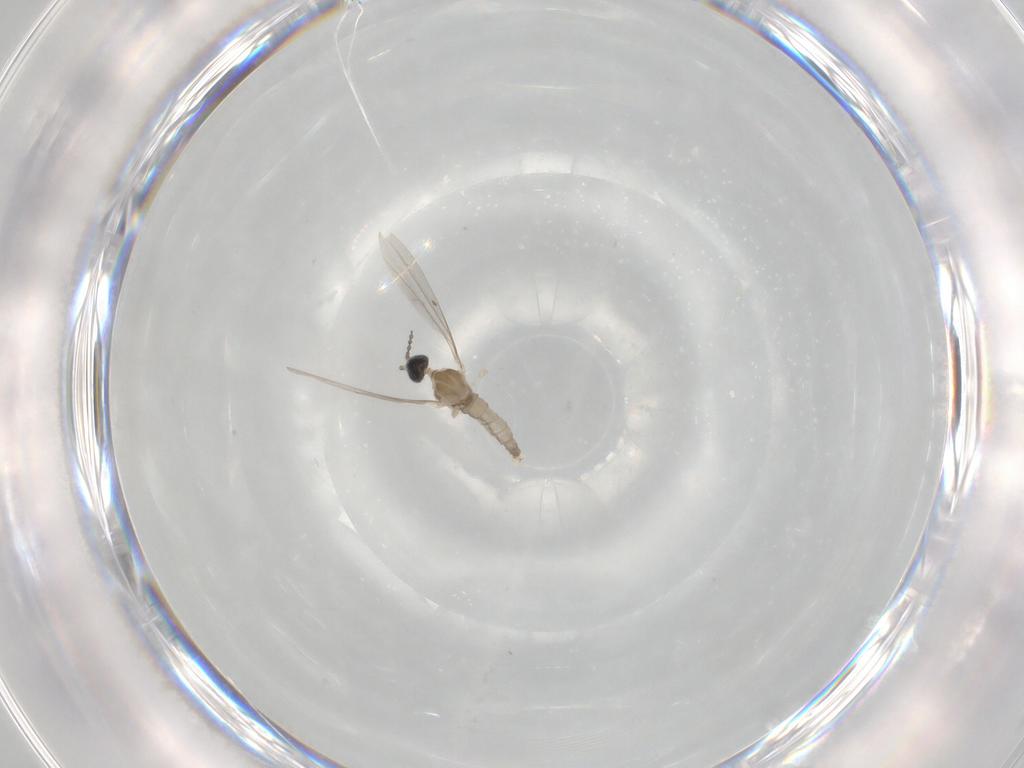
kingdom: Animalia
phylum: Arthropoda
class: Insecta
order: Diptera
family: Cecidomyiidae
